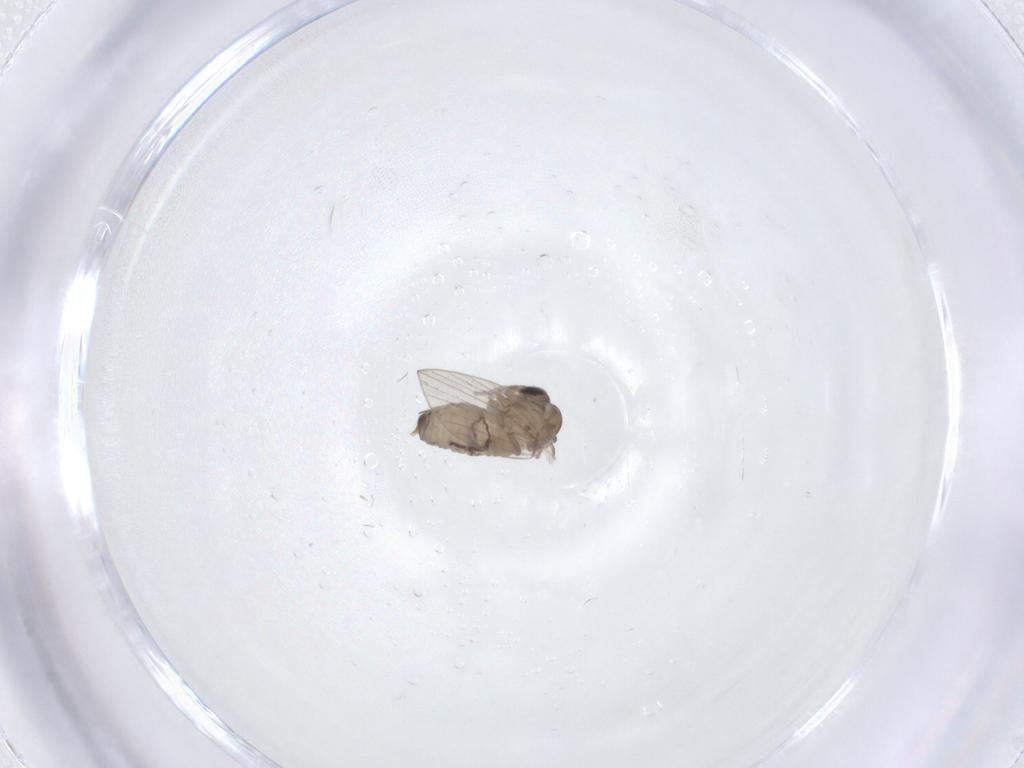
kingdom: Animalia
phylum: Arthropoda
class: Insecta
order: Diptera
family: Psychodidae
